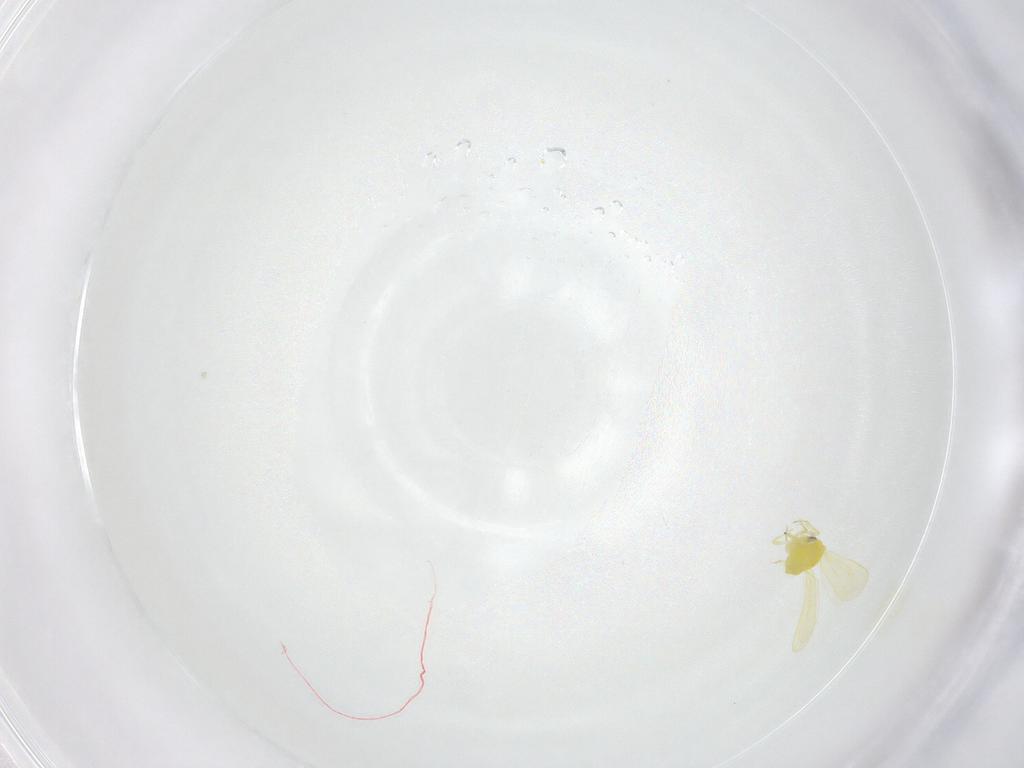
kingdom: Animalia
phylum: Arthropoda
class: Insecta
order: Hemiptera
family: Aleyrodidae
